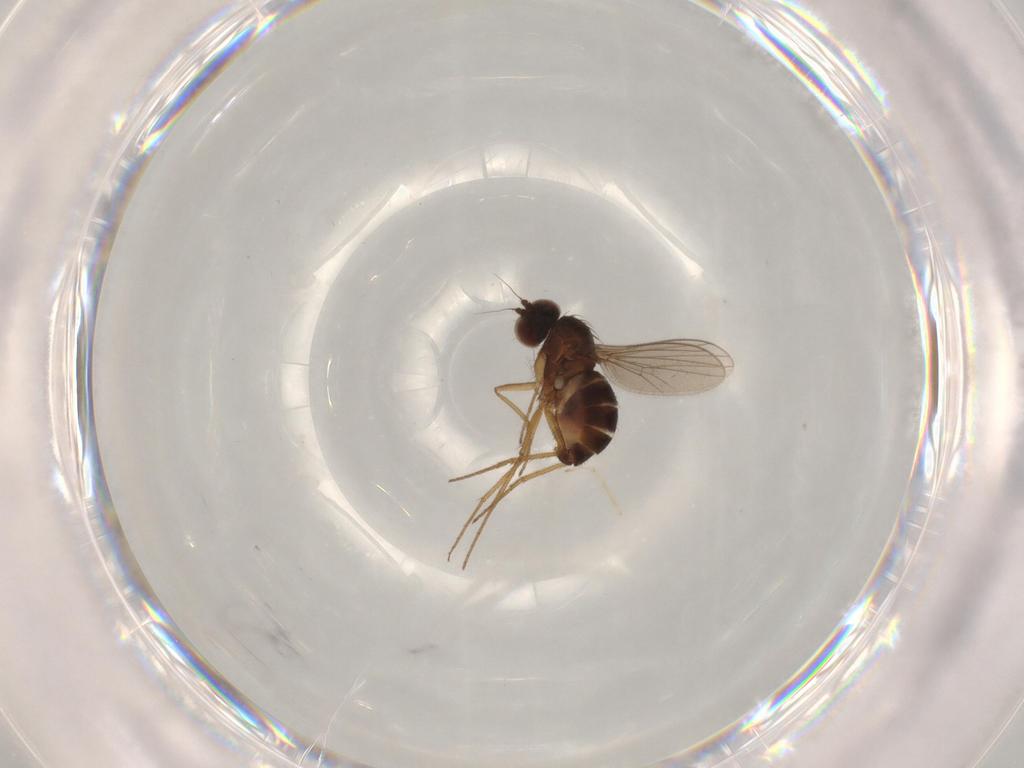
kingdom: Animalia
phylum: Arthropoda
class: Insecta
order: Diptera
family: Dolichopodidae
